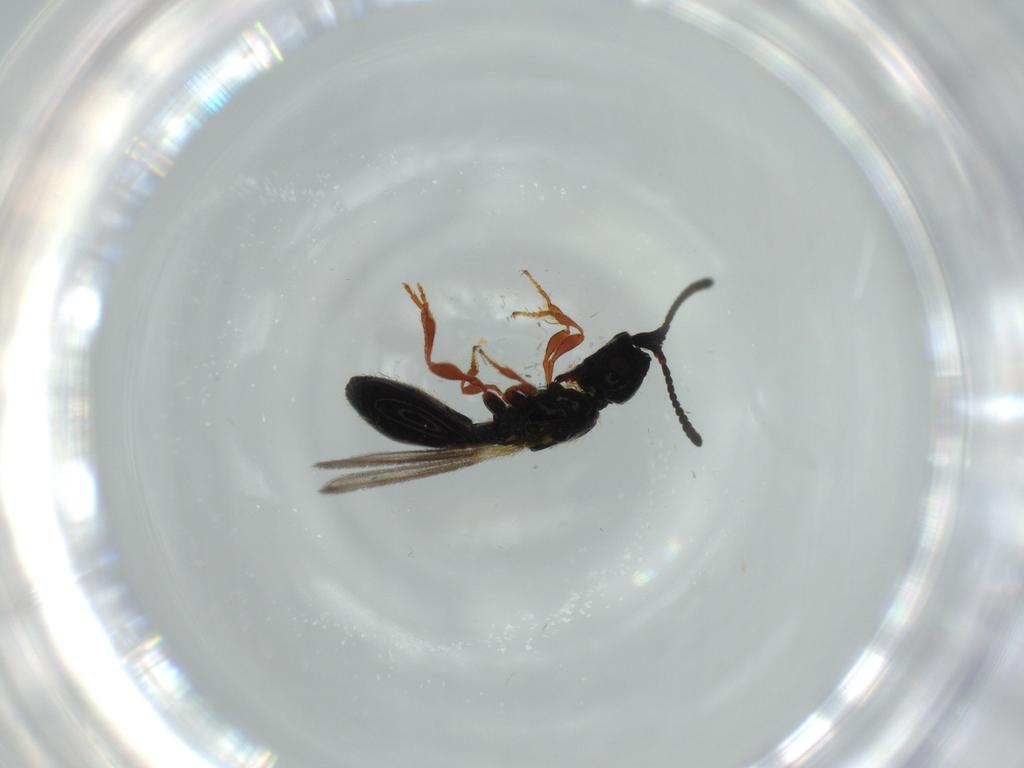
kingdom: Animalia
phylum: Arthropoda
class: Insecta
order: Hymenoptera
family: Diapriidae
